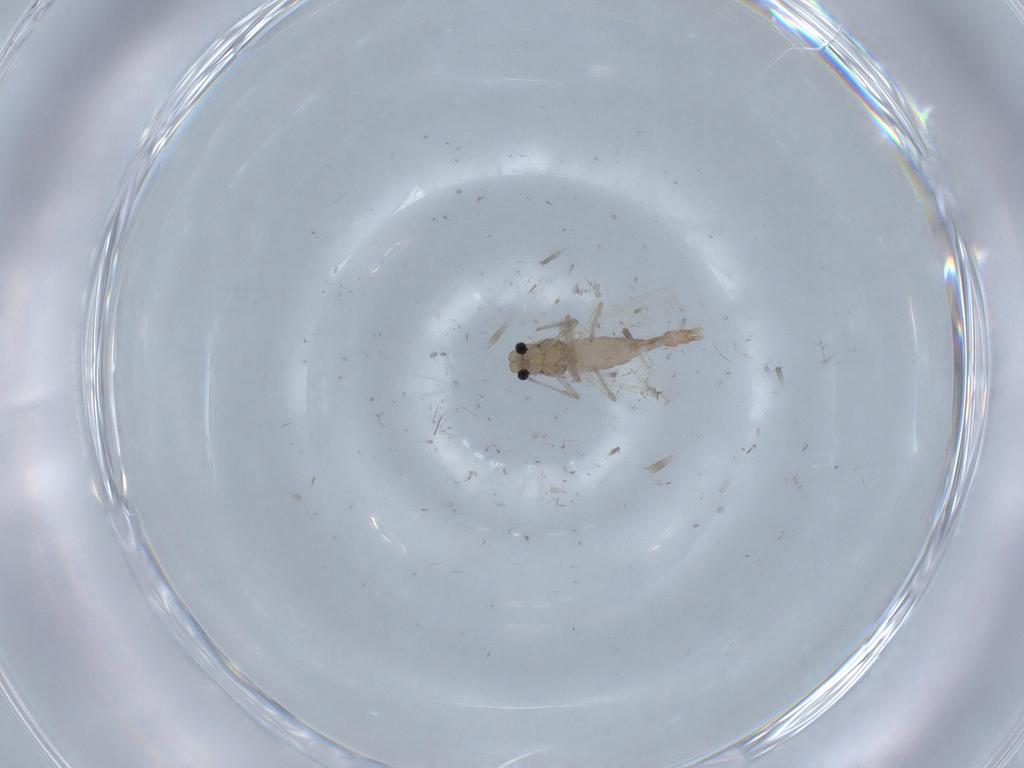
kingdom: Animalia
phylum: Arthropoda
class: Insecta
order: Diptera
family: Chironomidae
